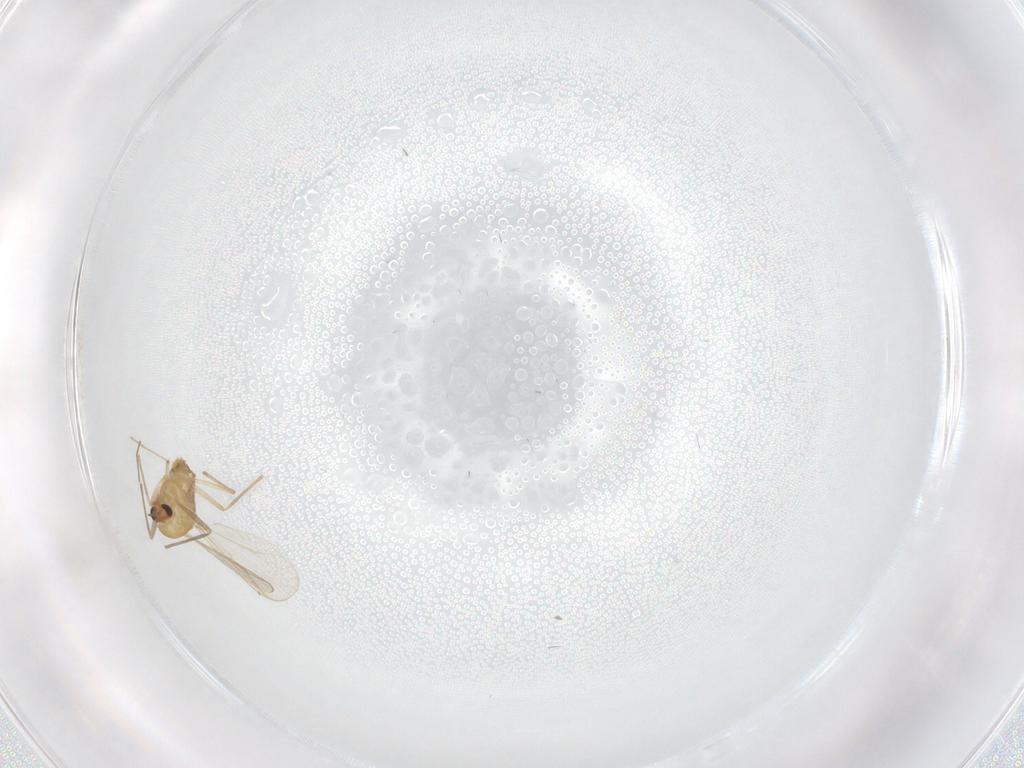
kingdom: Animalia
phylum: Arthropoda
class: Insecta
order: Diptera
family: Chironomidae
